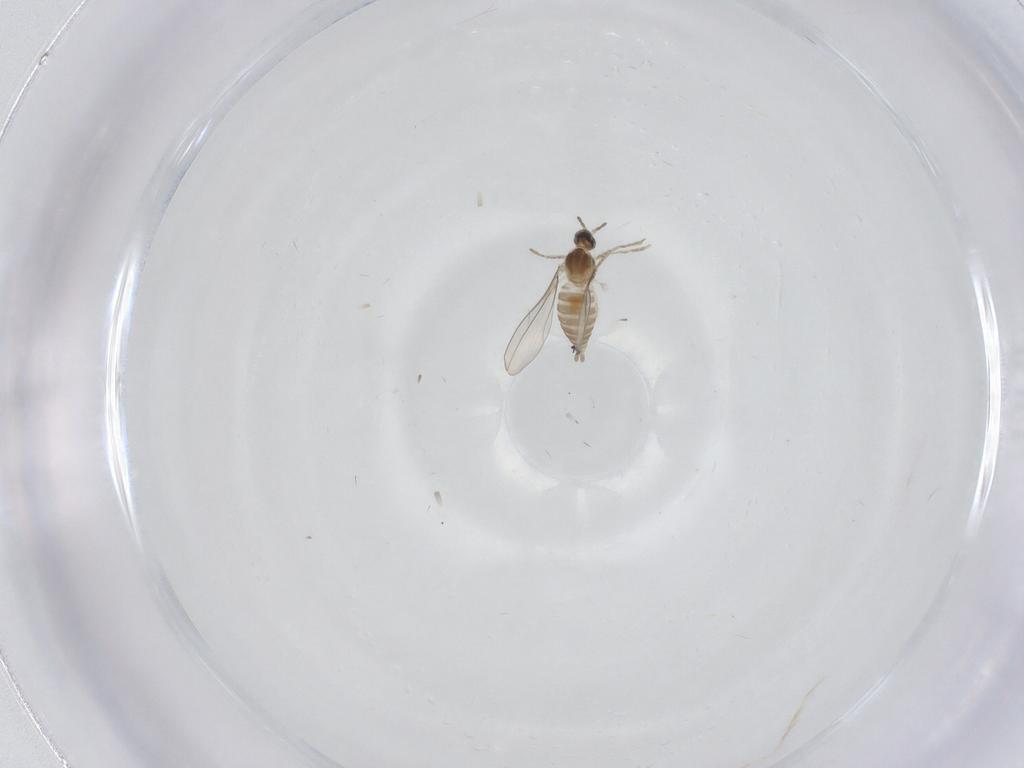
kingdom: Animalia
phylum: Arthropoda
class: Insecta
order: Diptera
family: Cecidomyiidae
